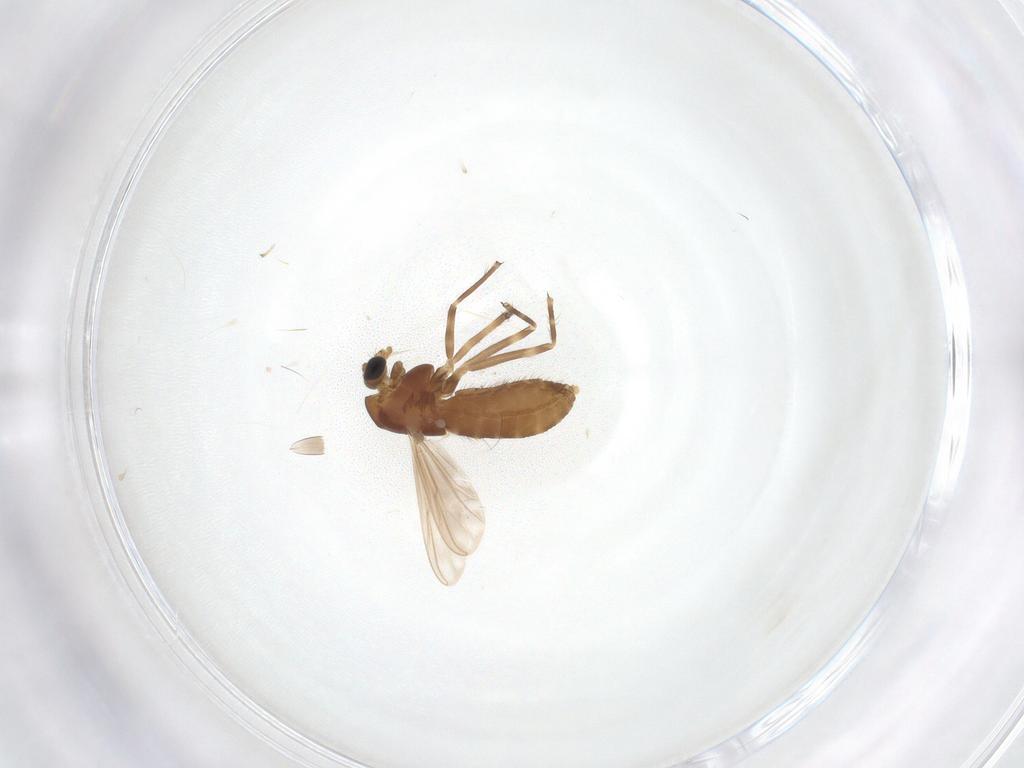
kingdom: Animalia
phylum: Arthropoda
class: Insecta
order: Diptera
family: Chironomidae
